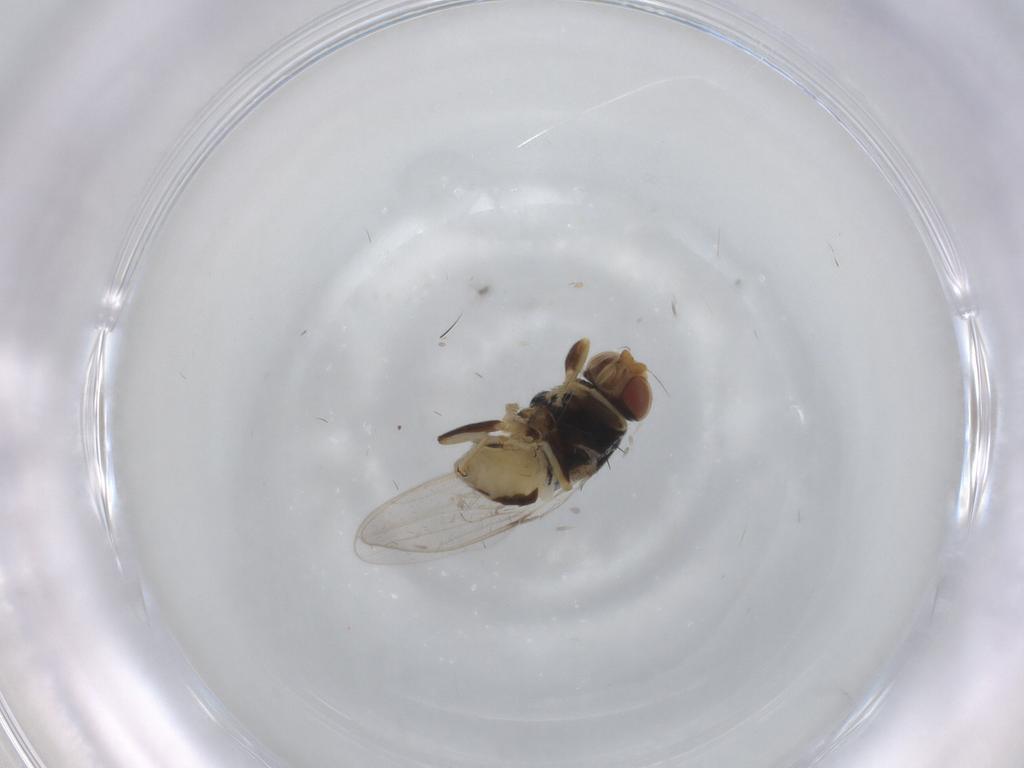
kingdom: Animalia
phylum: Arthropoda
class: Insecta
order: Diptera
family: Chloropidae
